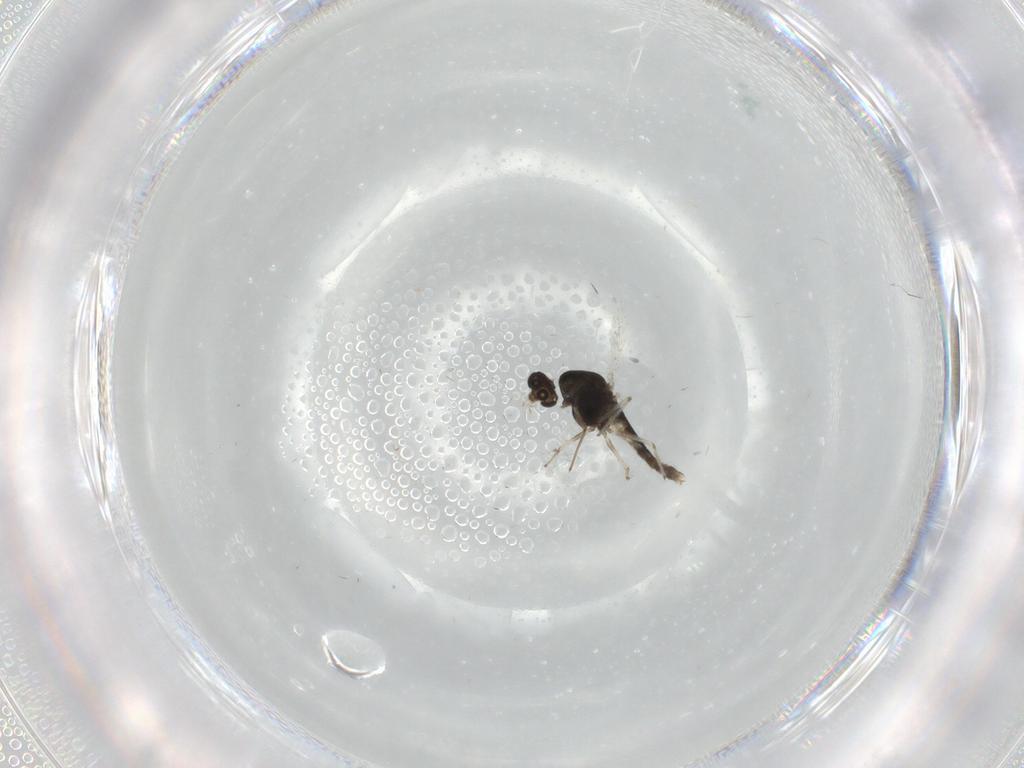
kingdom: Animalia
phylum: Arthropoda
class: Insecta
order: Diptera
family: Chironomidae
